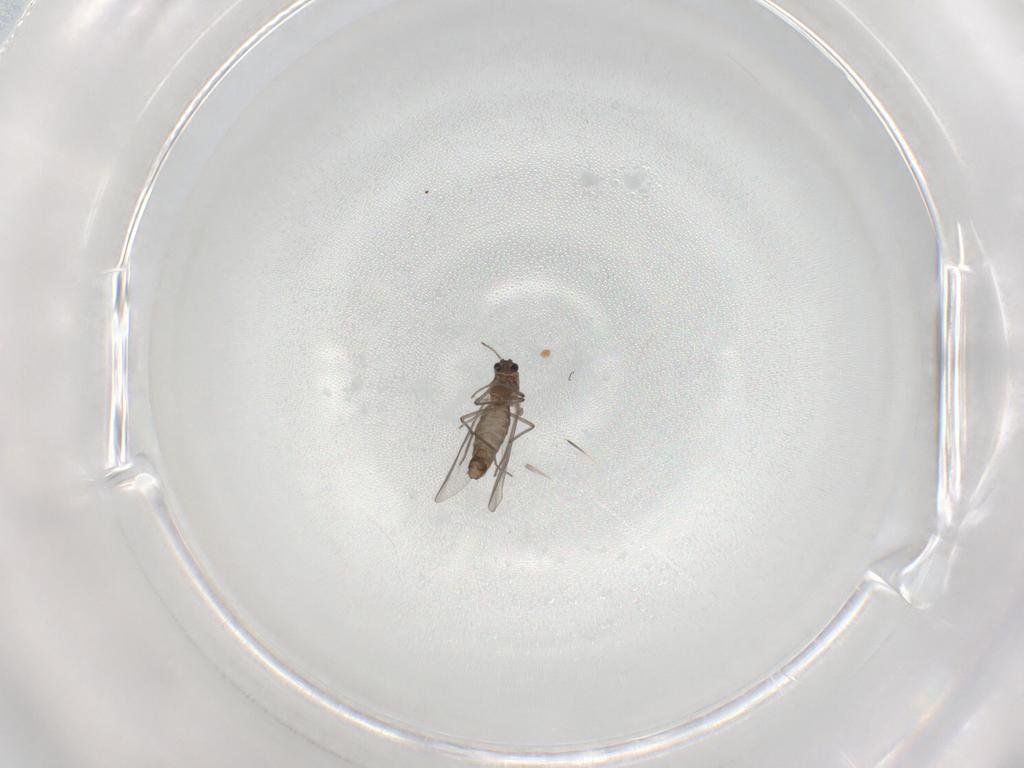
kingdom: Animalia
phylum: Arthropoda
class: Insecta
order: Diptera
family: Chironomidae
